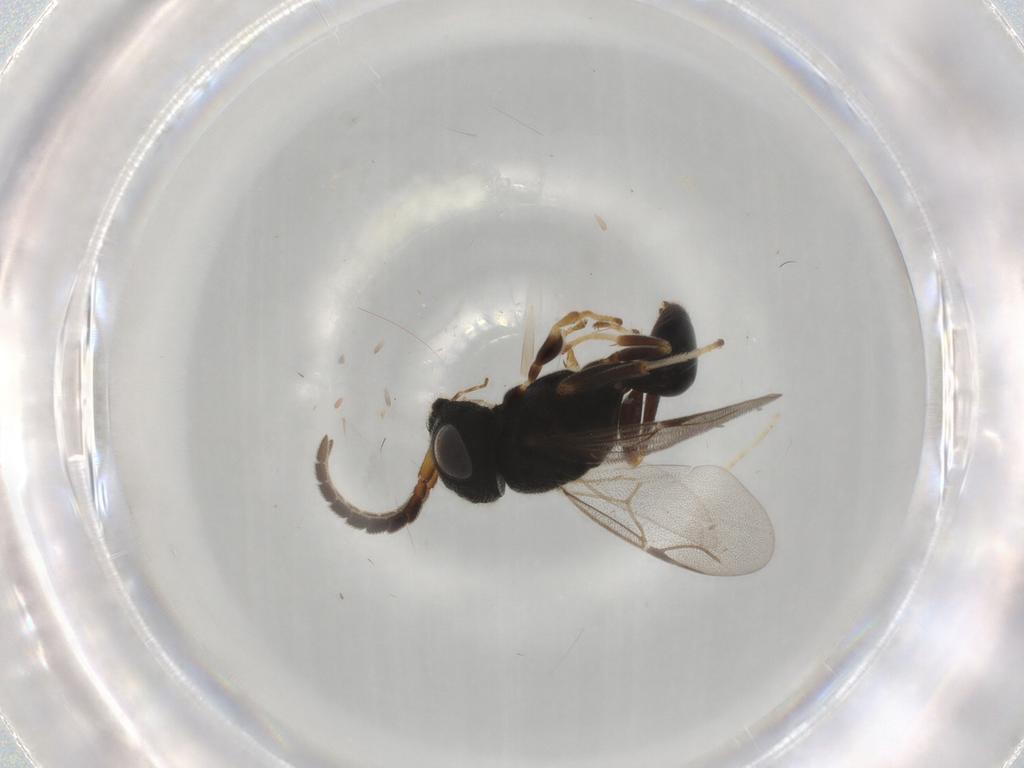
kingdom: Animalia
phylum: Arthropoda
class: Insecta
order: Hymenoptera
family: Dryinidae
